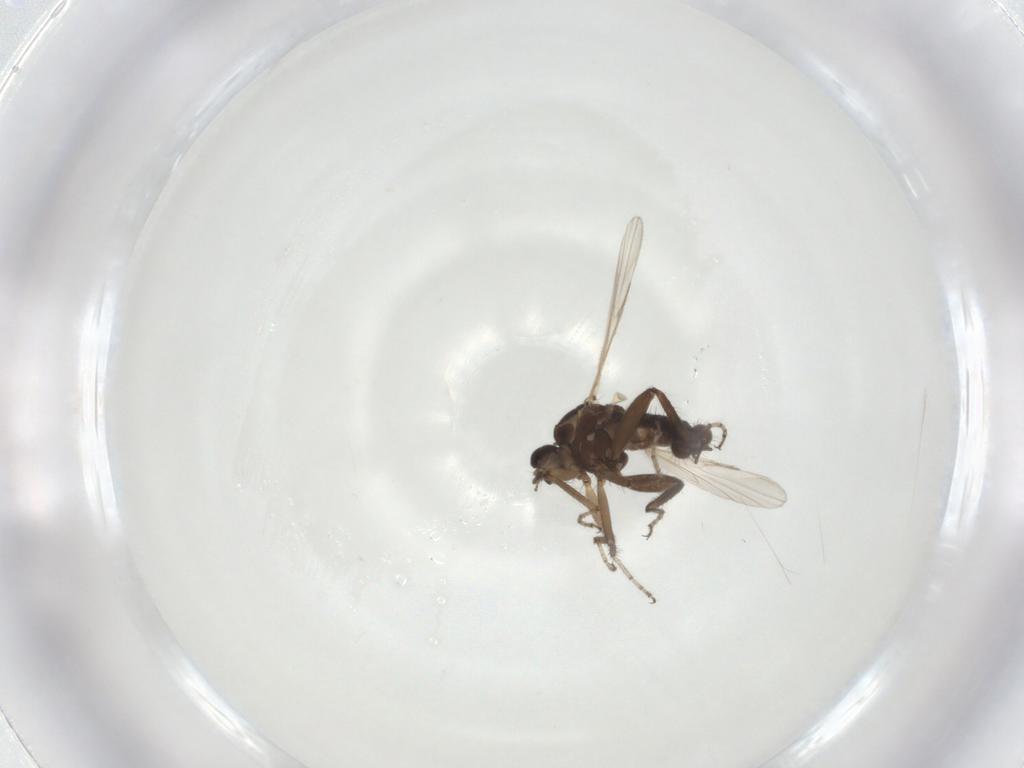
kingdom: Animalia
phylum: Arthropoda
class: Insecta
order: Diptera
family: Ceratopogonidae
